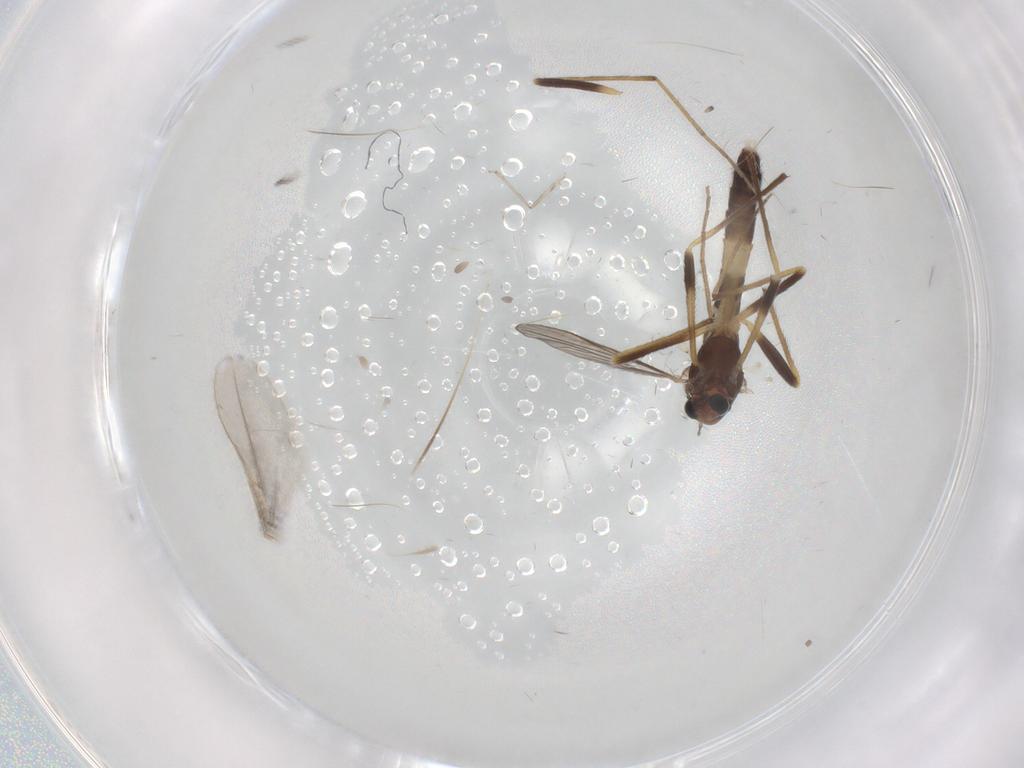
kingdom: Animalia
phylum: Arthropoda
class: Insecta
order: Diptera
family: Chironomidae
